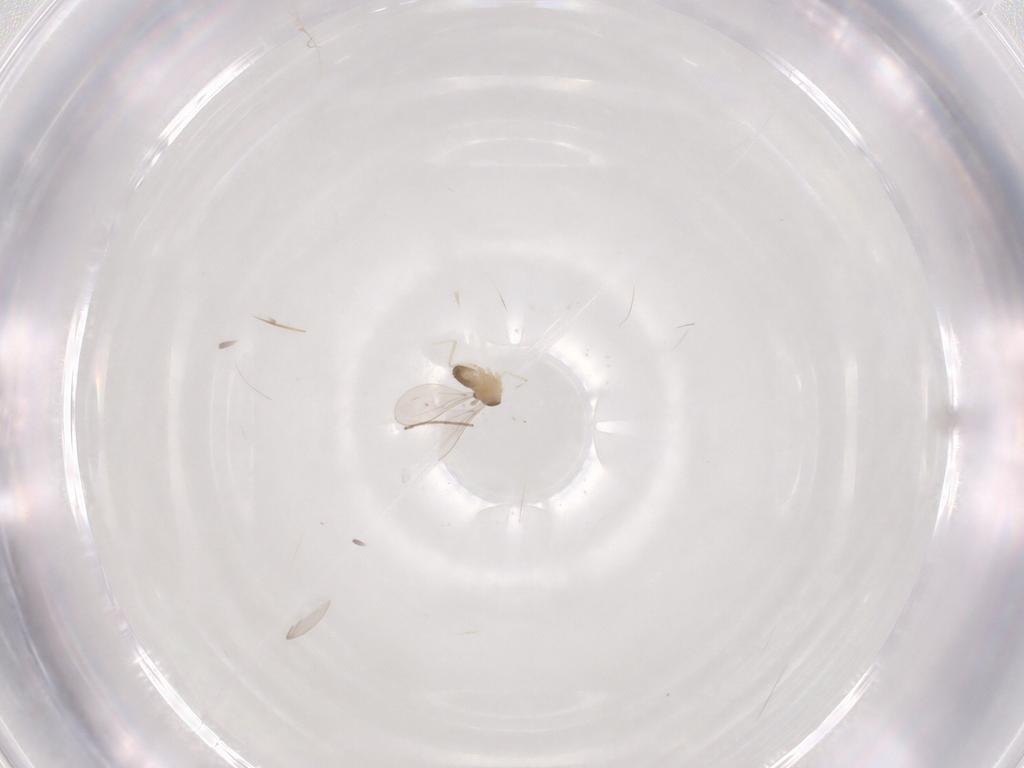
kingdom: Animalia
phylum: Arthropoda
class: Insecta
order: Diptera
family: Cecidomyiidae
